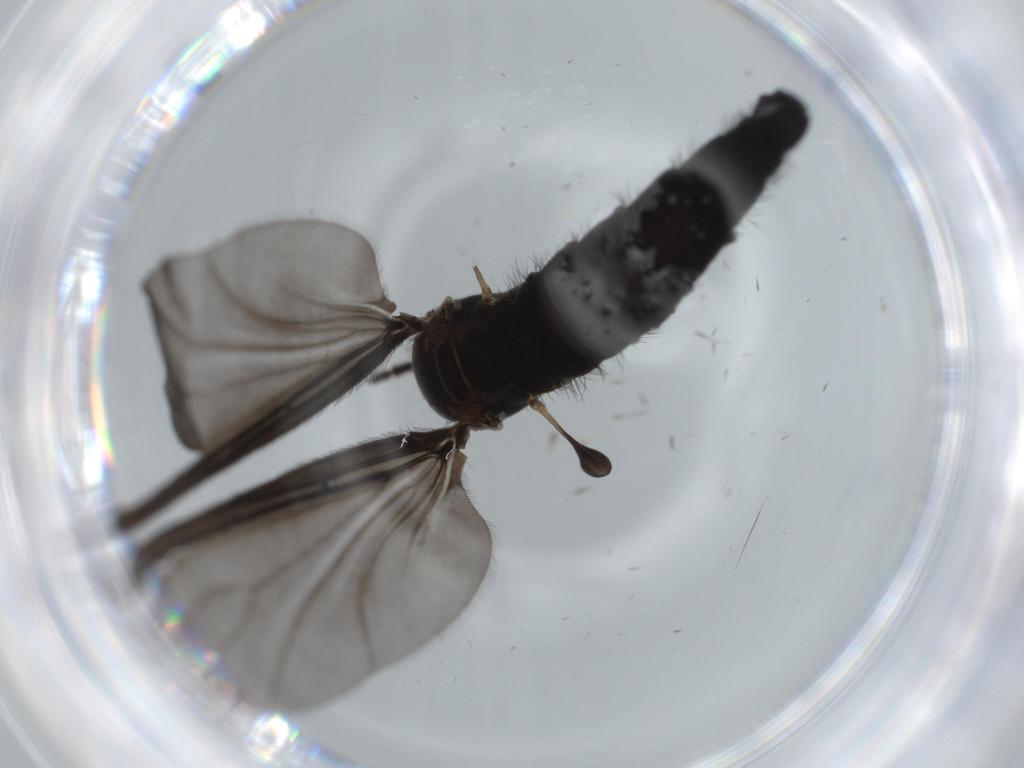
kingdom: Animalia
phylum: Arthropoda
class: Insecta
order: Diptera
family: Sciaridae
